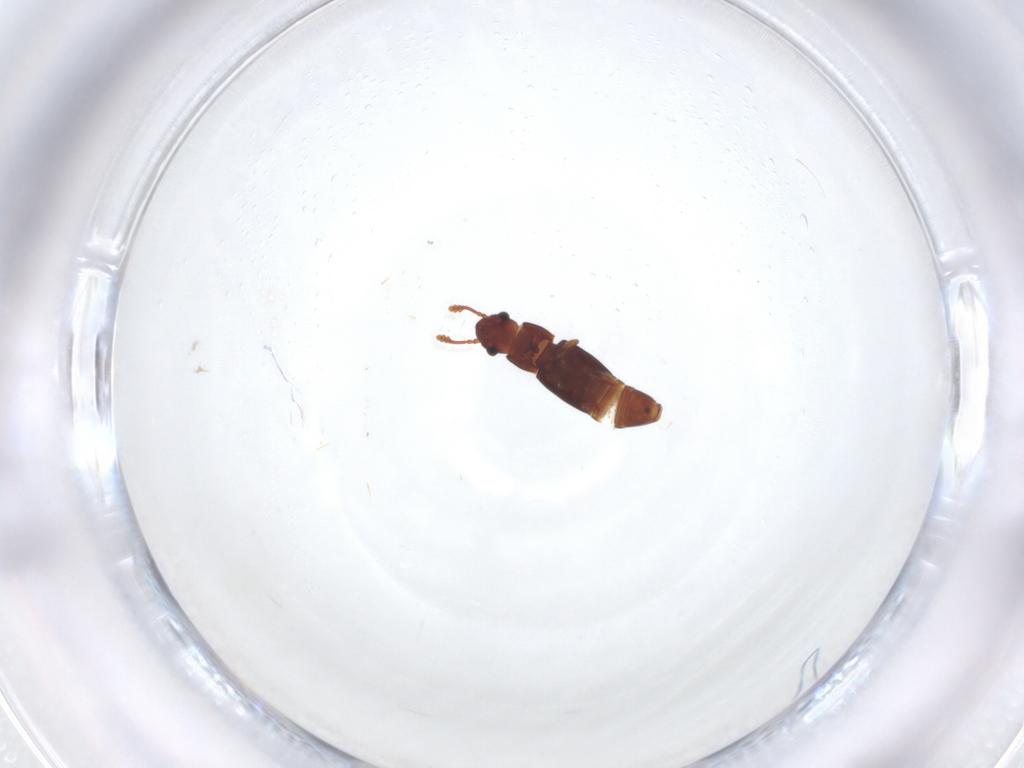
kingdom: Animalia
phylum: Arthropoda
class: Insecta
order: Coleoptera
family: Smicripidae
